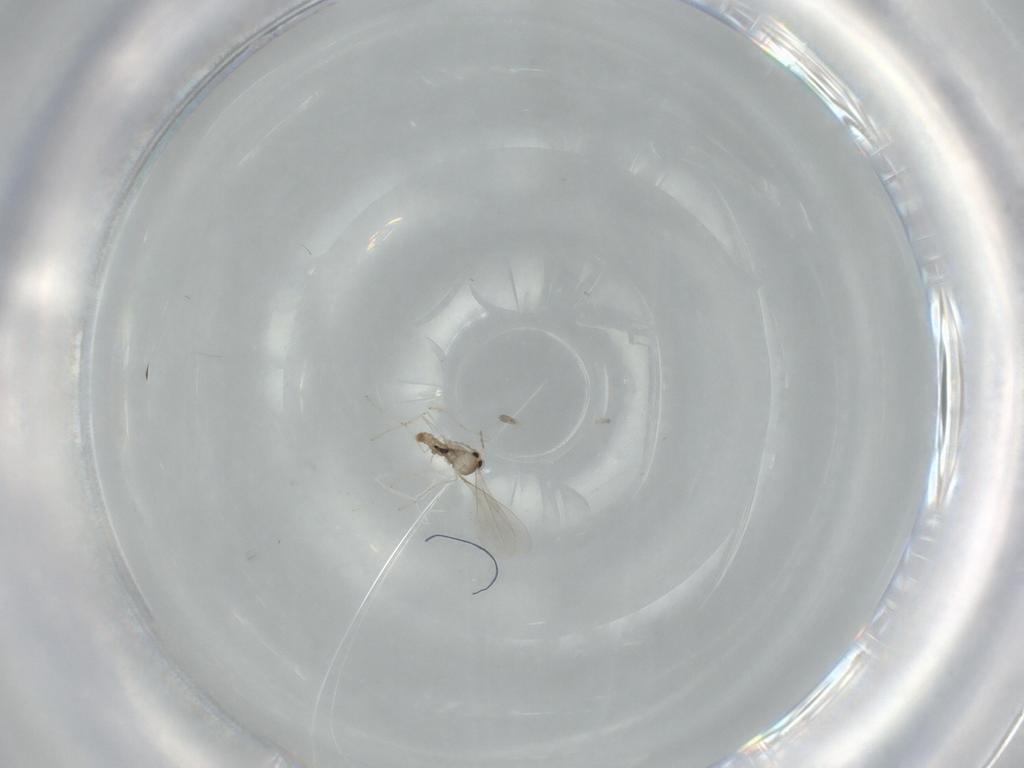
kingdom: Animalia
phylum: Arthropoda
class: Insecta
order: Diptera
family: Cecidomyiidae
